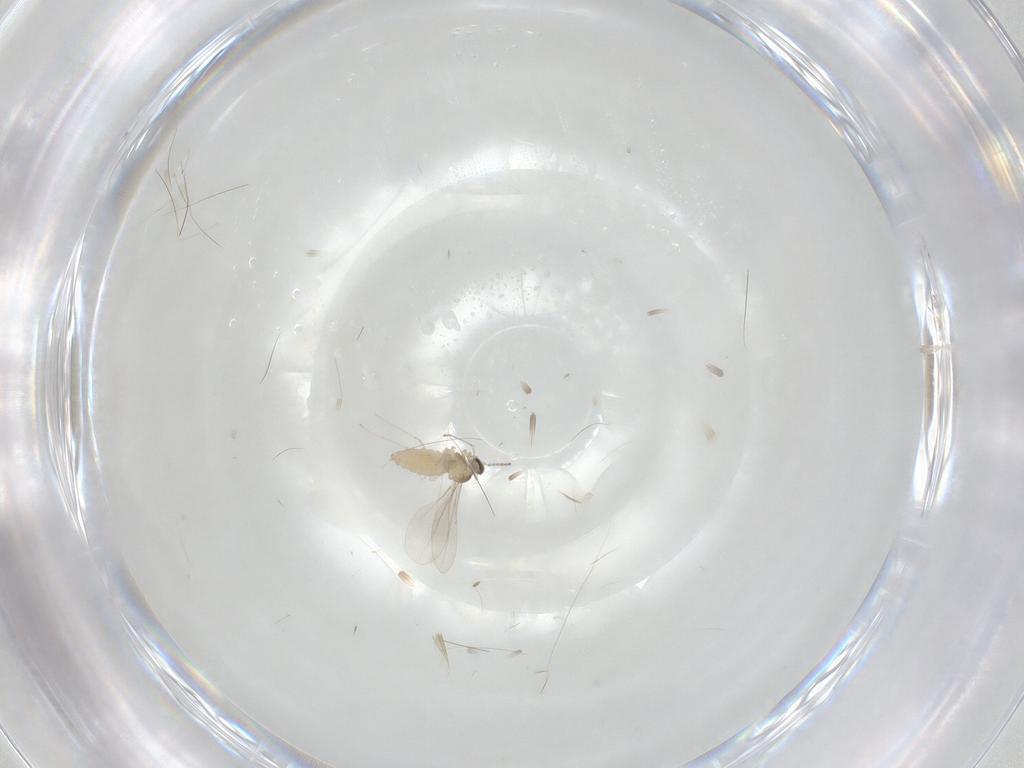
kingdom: Animalia
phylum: Arthropoda
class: Insecta
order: Diptera
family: Cecidomyiidae
